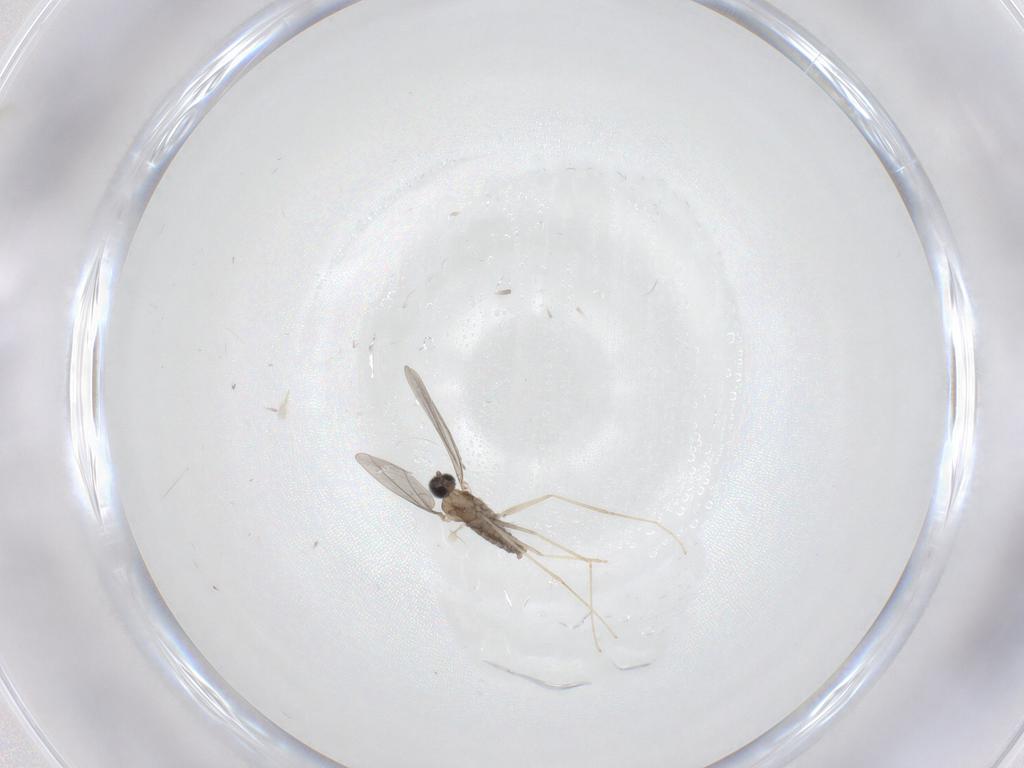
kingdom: Animalia
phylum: Arthropoda
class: Insecta
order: Diptera
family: Cecidomyiidae
